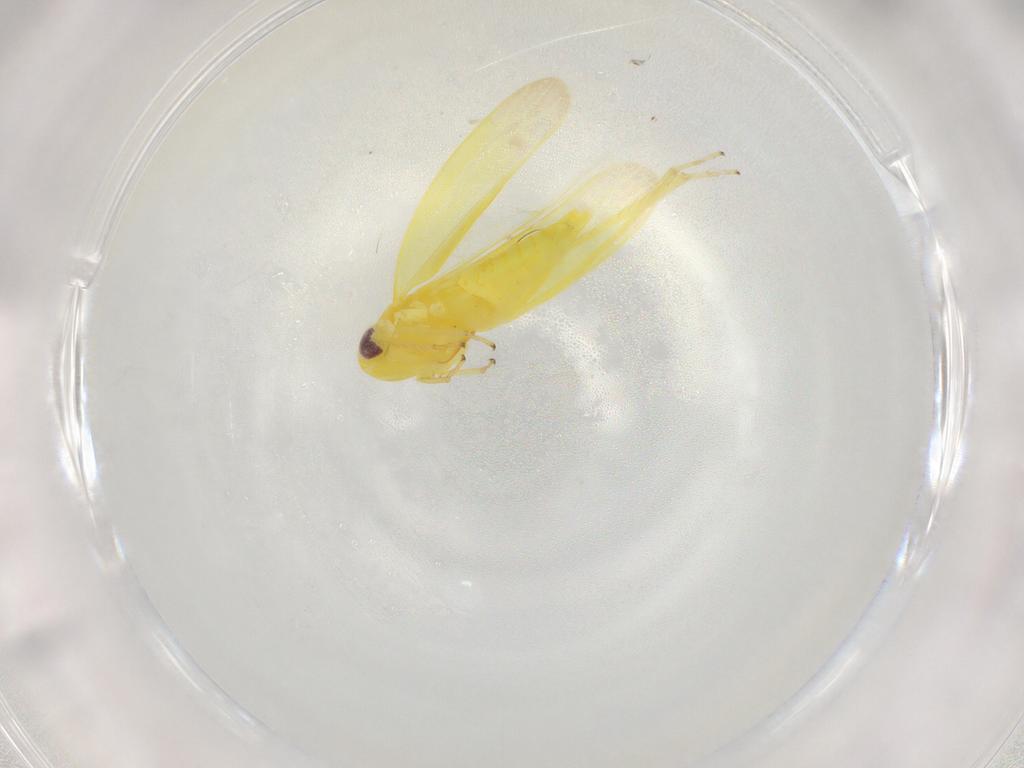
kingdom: Animalia
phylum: Arthropoda
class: Insecta
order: Hemiptera
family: Cicadellidae
